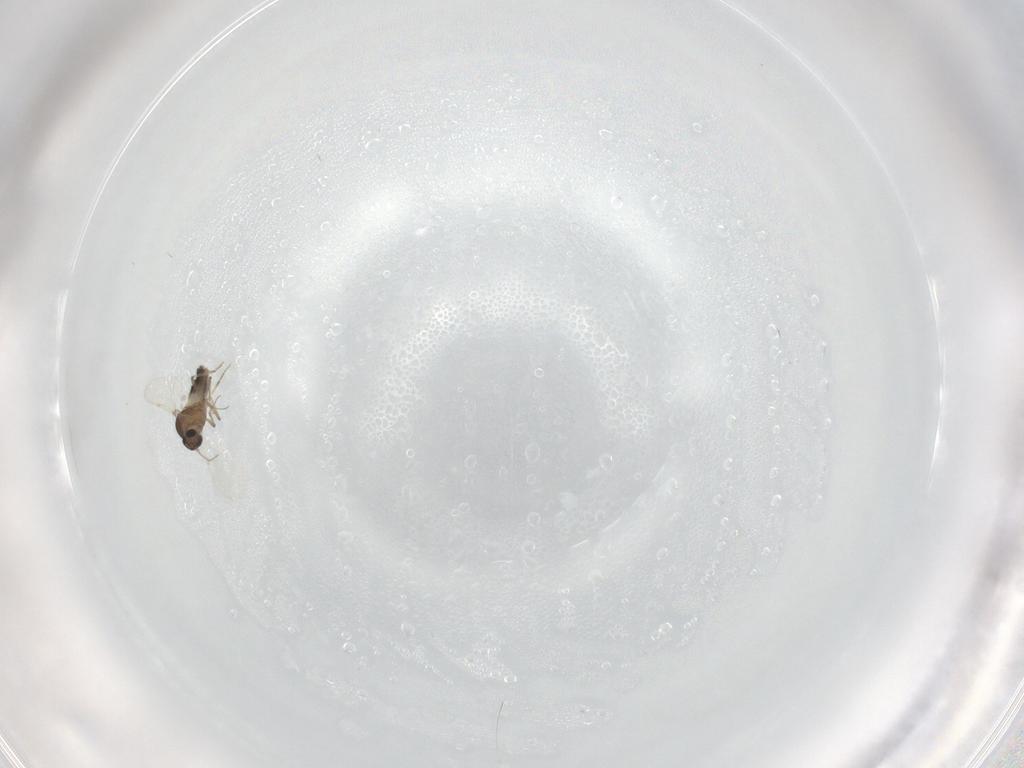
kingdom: Animalia
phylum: Arthropoda
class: Insecta
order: Diptera
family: Ceratopogonidae
